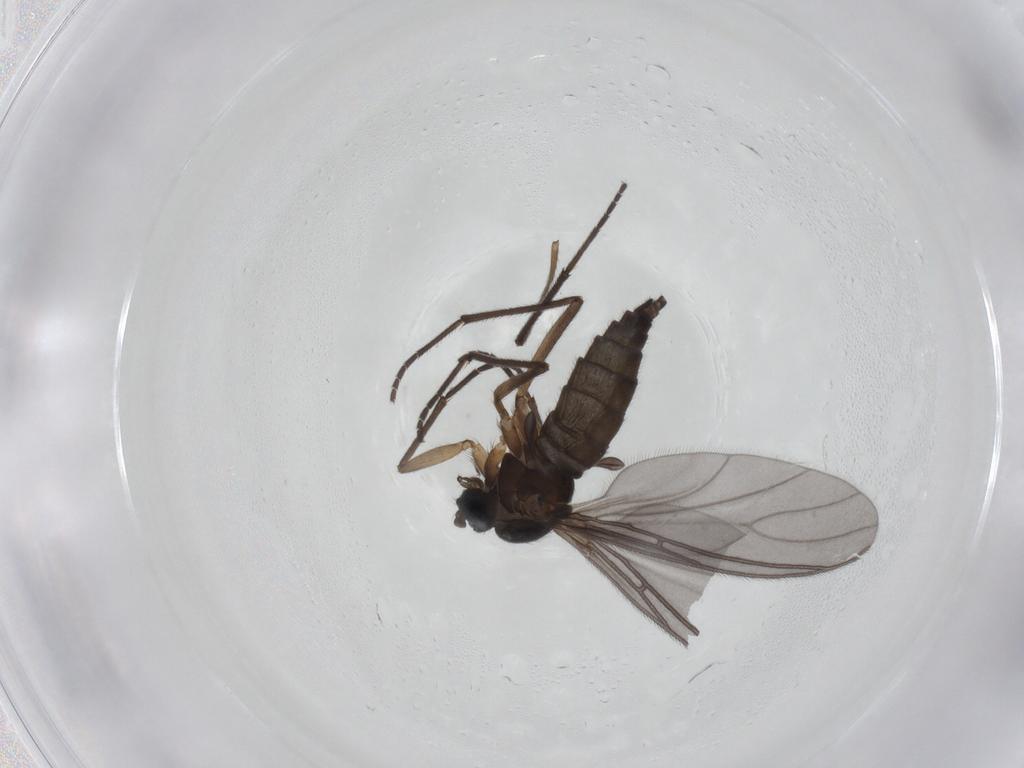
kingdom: Animalia
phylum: Arthropoda
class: Insecta
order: Diptera
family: Sciaridae
